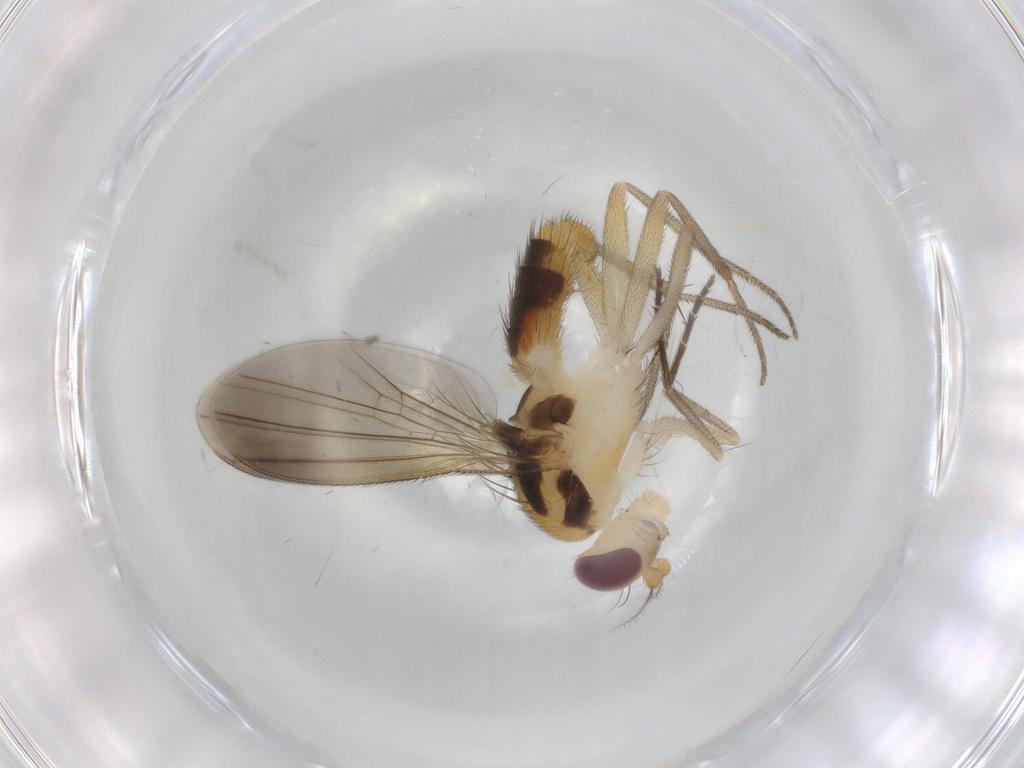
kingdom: Animalia
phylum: Arthropoda
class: Insecta
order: Diptera
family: Clusiidae
